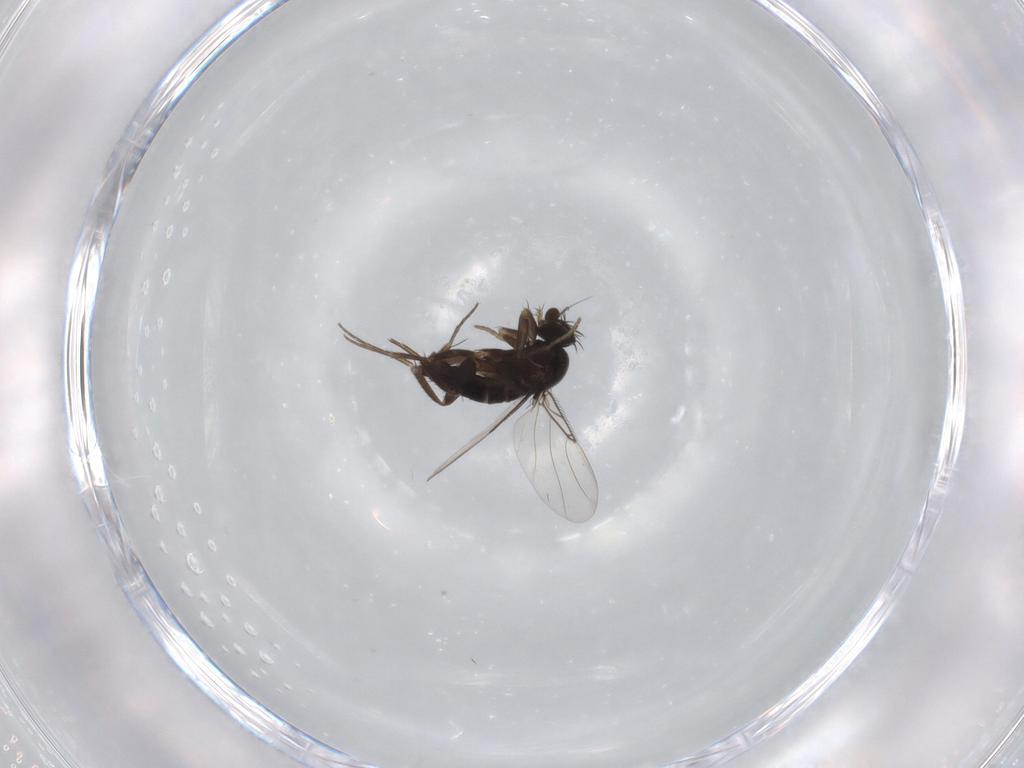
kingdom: Animalia
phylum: Arthropoda
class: Insecta
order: Diptera
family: Phoridae
